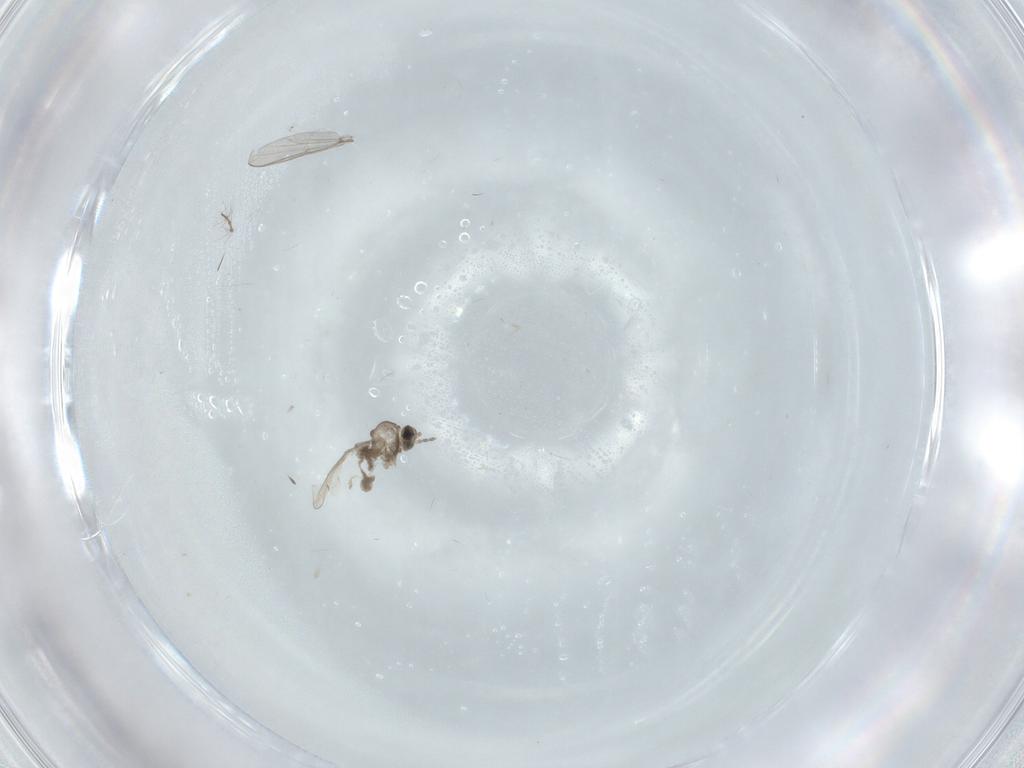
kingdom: Animalia
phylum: Arthropoda
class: Insecta
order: Diptera
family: Chironomidae
